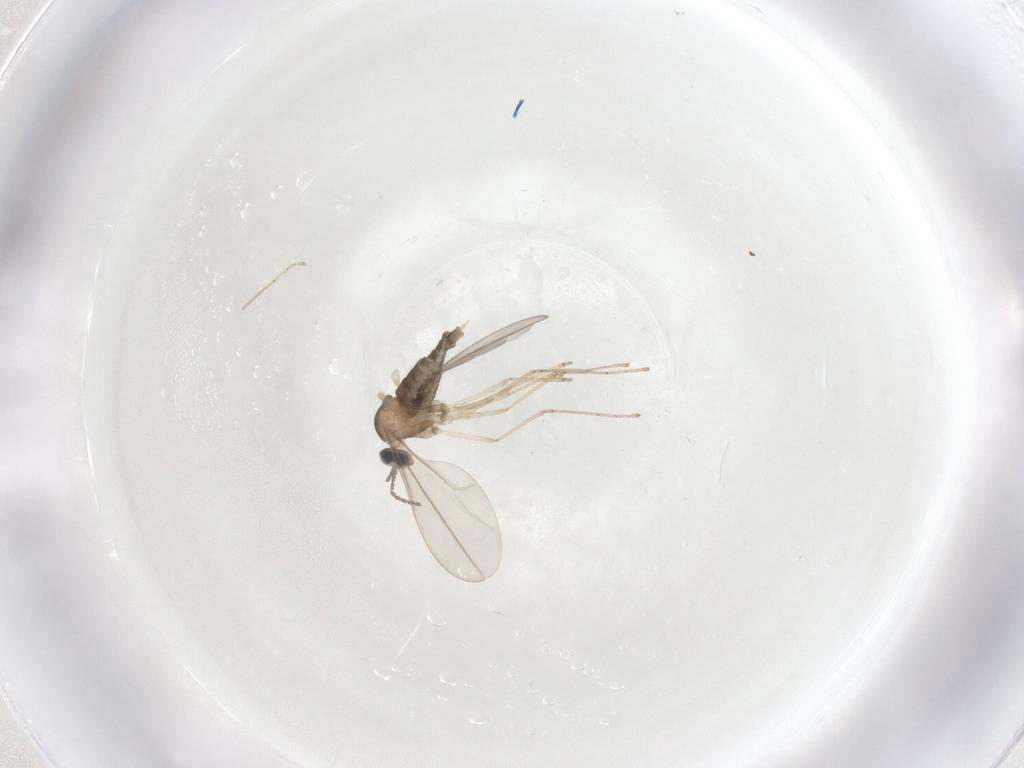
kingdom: Animalia
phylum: Arthropoda
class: Insecta
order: Diptera
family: Cecidomyiidae
